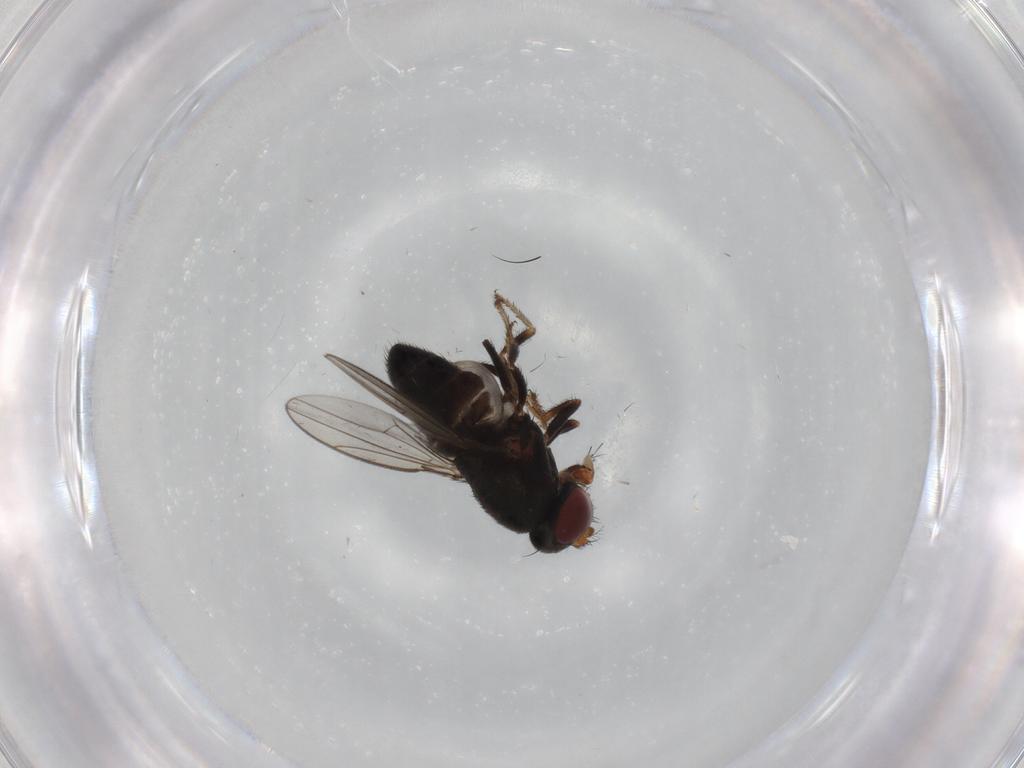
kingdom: Animalia
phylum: Arthropoda
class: Insecta
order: Diptera
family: Ephydridae
